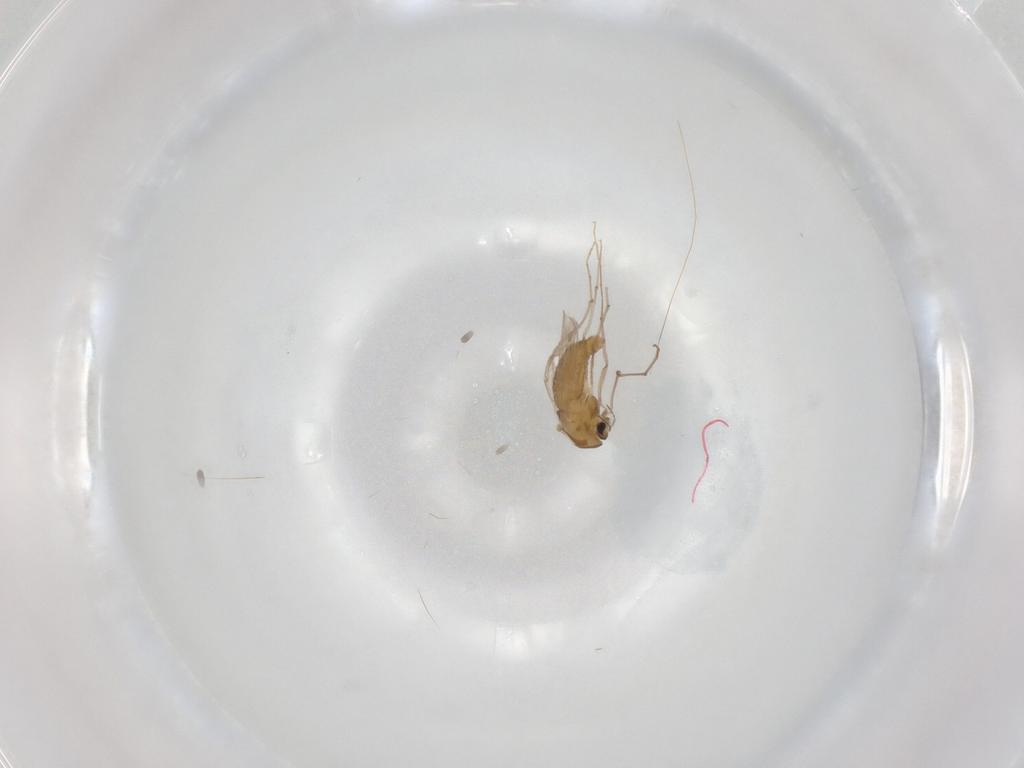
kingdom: Animalia
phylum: Arthropoda
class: Insecta
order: Diptera
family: Chironomidae
